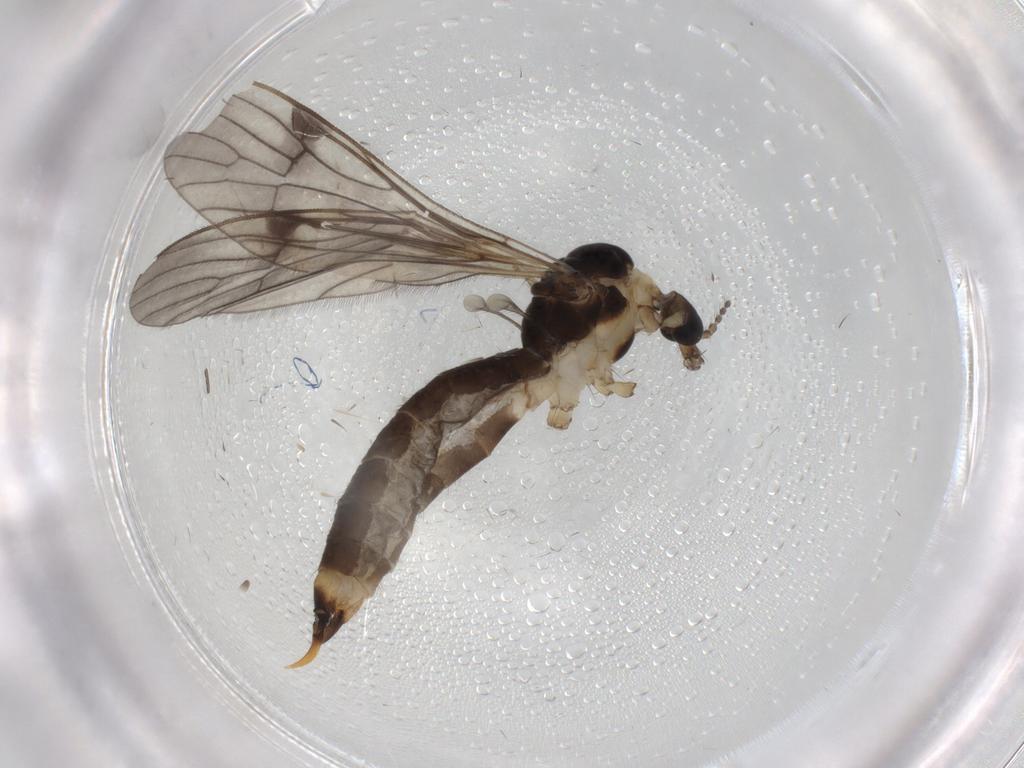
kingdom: Animalia
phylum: Arthropoda
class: Insecta
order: Diptera
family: Limoniidae
